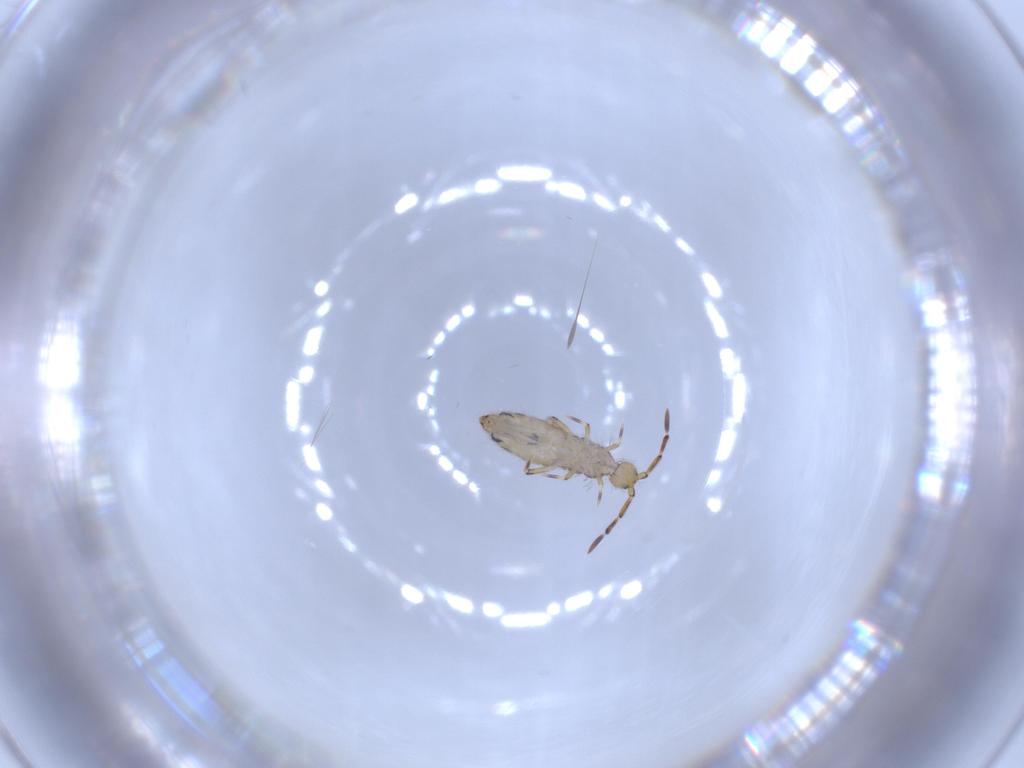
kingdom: Animalia
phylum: Arthropoda
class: Collembola
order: Entomobryomorpha
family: Entomobryidae
